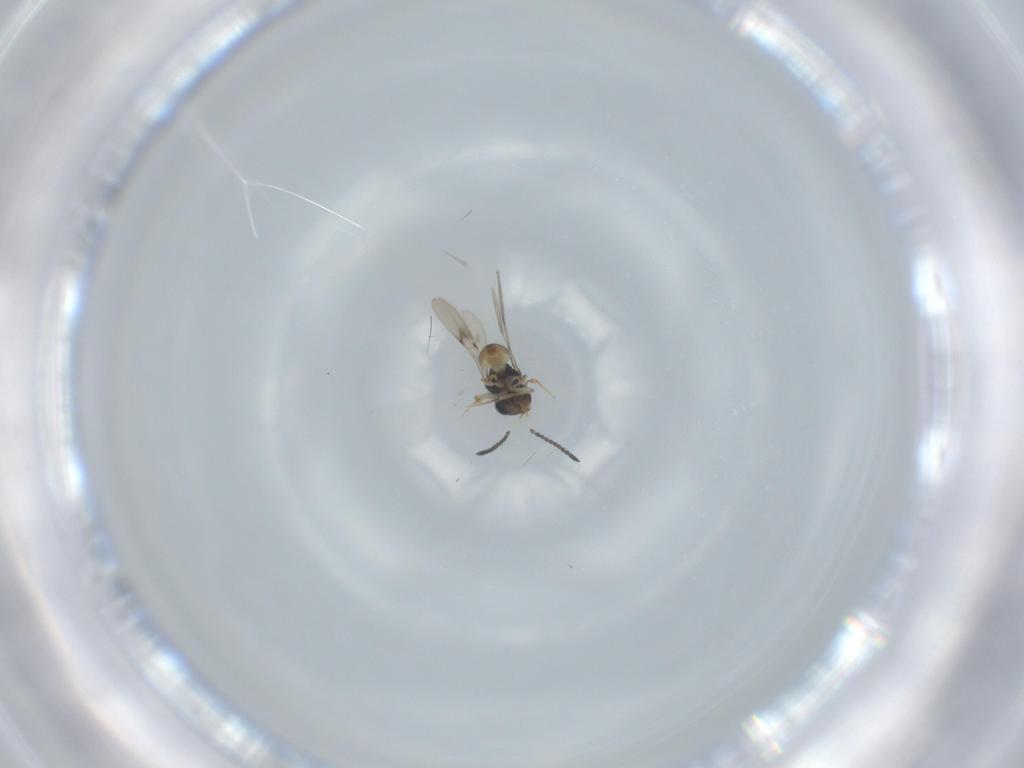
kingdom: Animalia
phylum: Arthropoda
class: Insecta
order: Hymenoptera
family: Scelionidae
